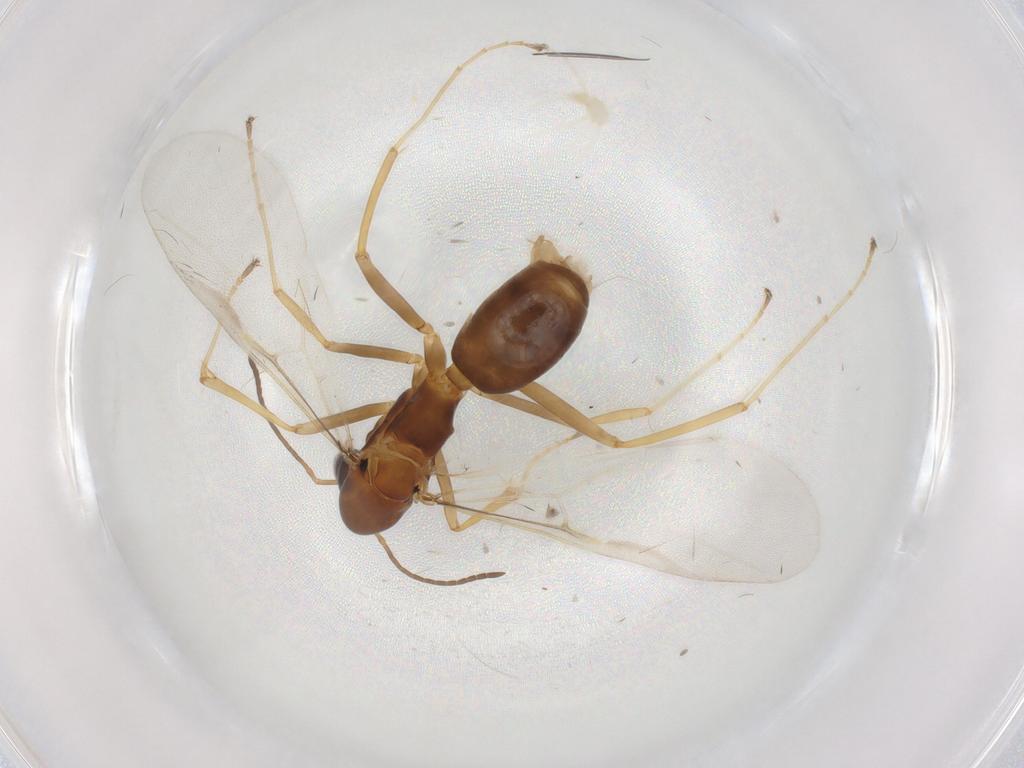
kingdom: Animalia
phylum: Arthropoda
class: Insecta
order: Hymenoptera
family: Formicidae
